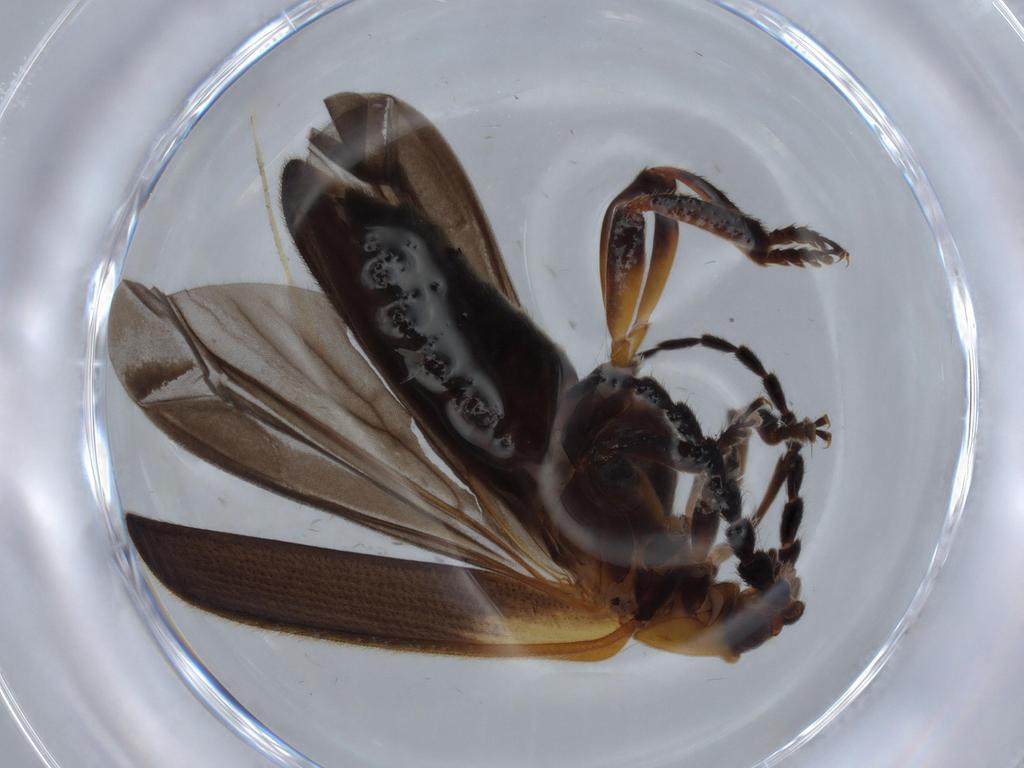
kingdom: Animalia
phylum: Arthropoda
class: Insecta
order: Coleoptera
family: Lycidae
